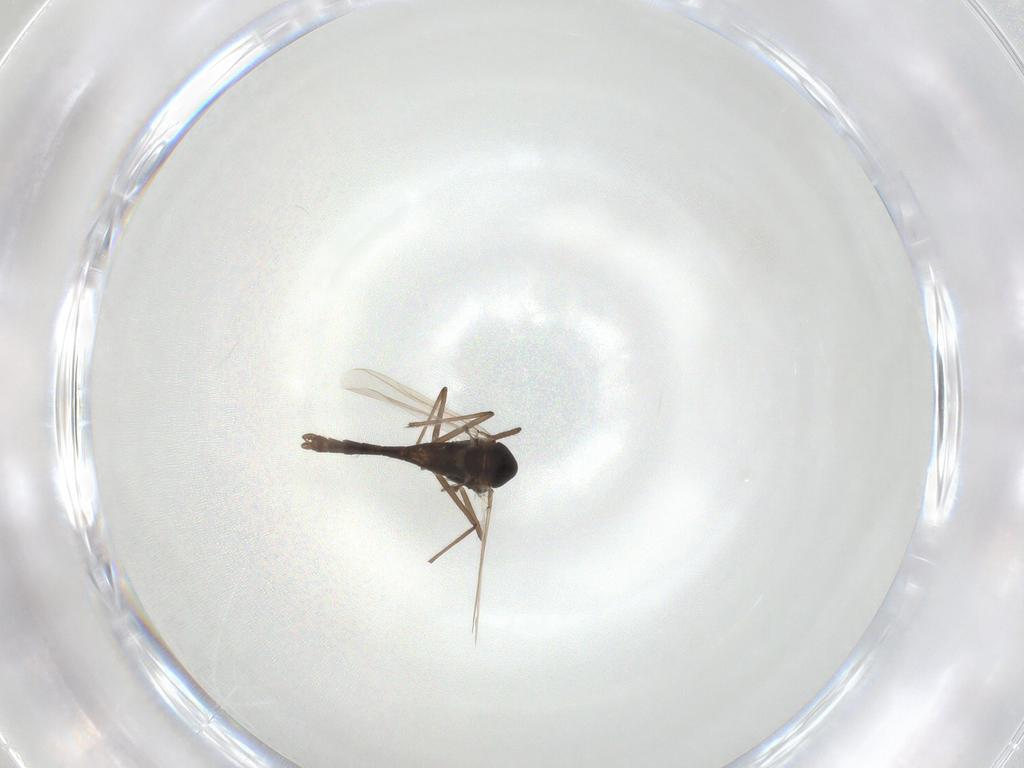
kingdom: Animalia
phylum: Arthropoda
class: Insecta
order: Diptera
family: Chironomidae
